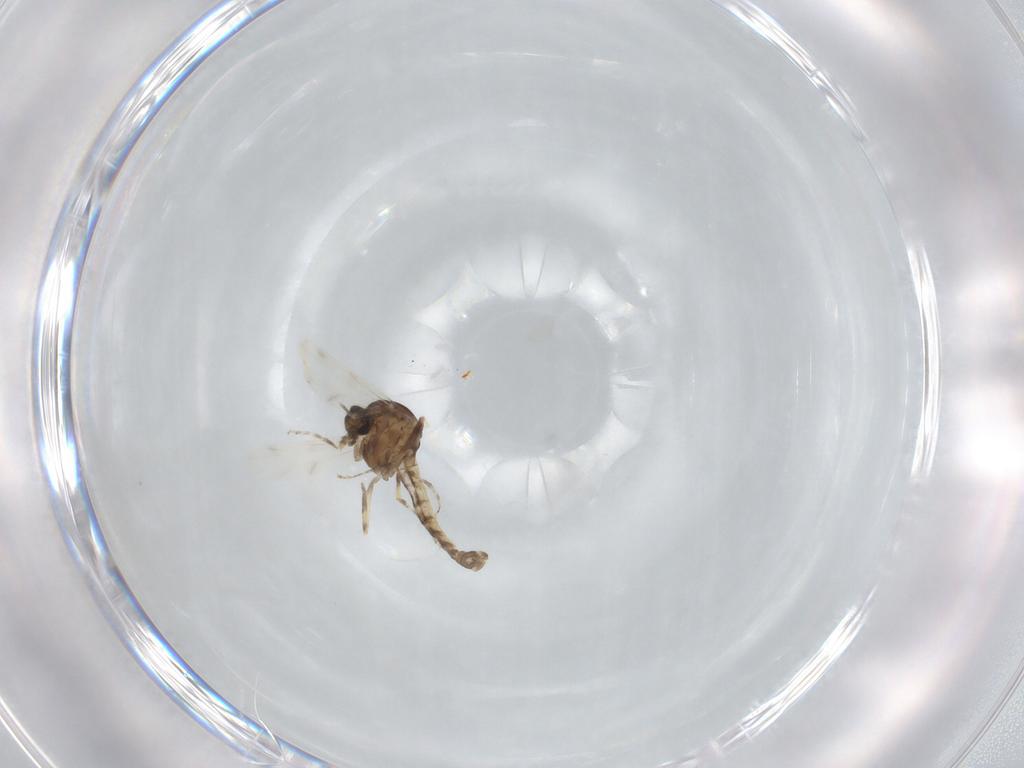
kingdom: Animalia
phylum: Arthropoda
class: Insecta
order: Diptera
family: Ceratopogonidae
